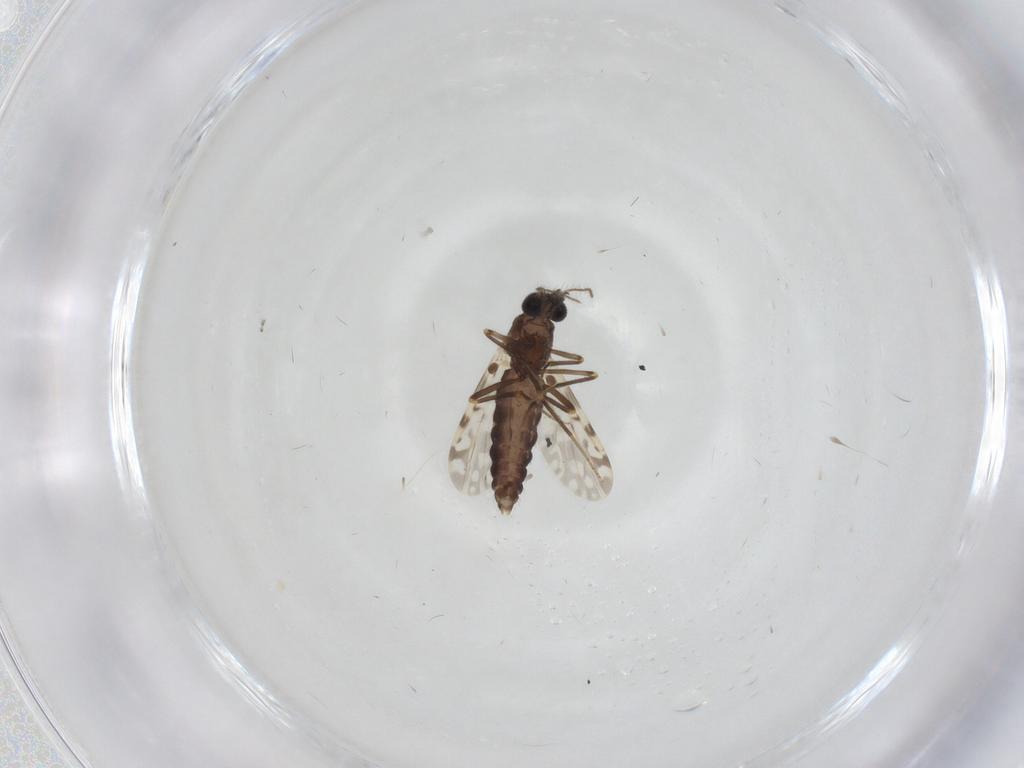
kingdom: Animalia
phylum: Arthropoda
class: Insecta
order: Diptera
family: Ceratopogonidae
